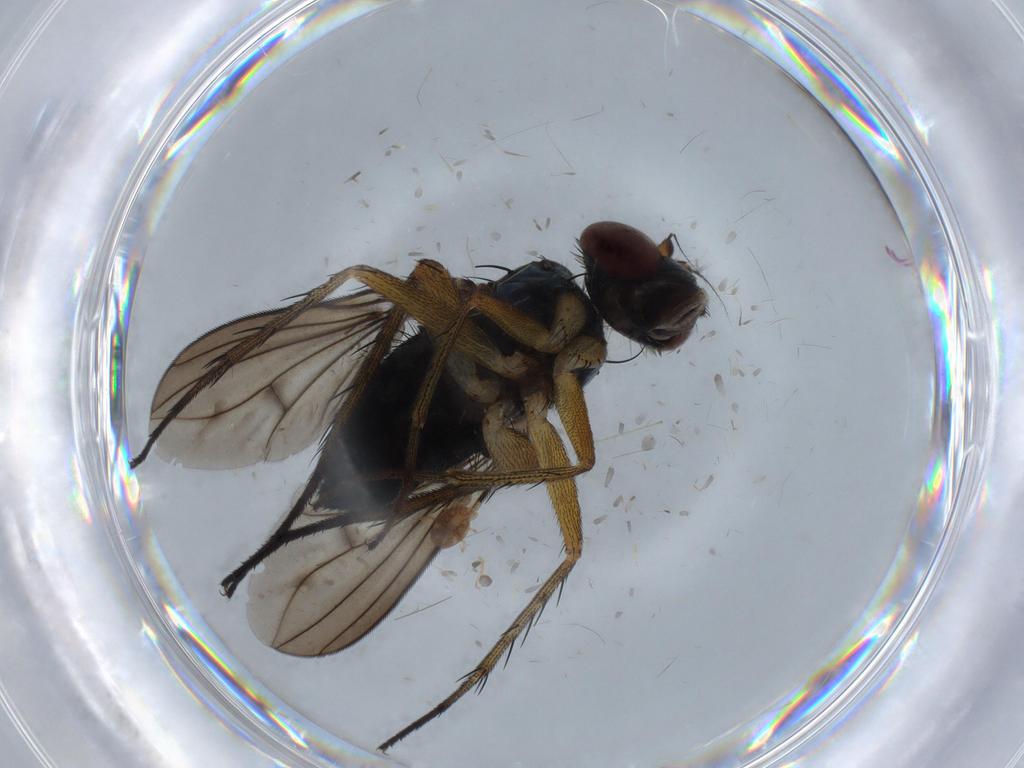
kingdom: Animalia
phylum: Arthropoda
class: Insecta
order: Diptera
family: Dolichopodidae
